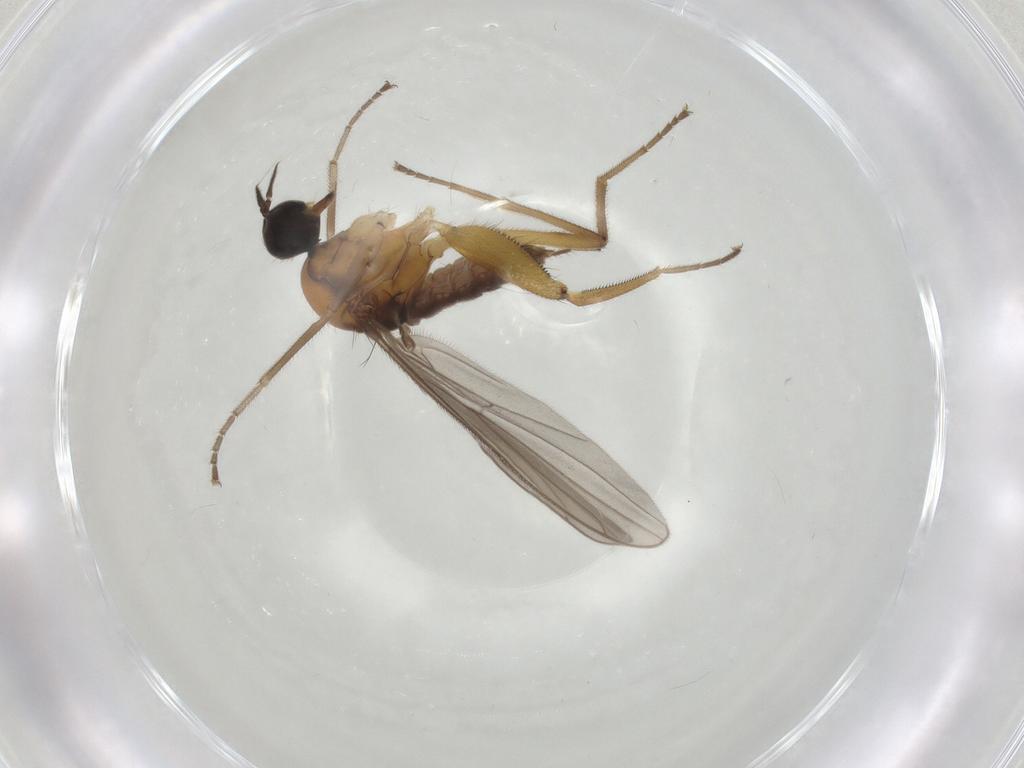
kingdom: Animalia
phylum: Arthropoda
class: Insecta
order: Diptera
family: Hybotidae
